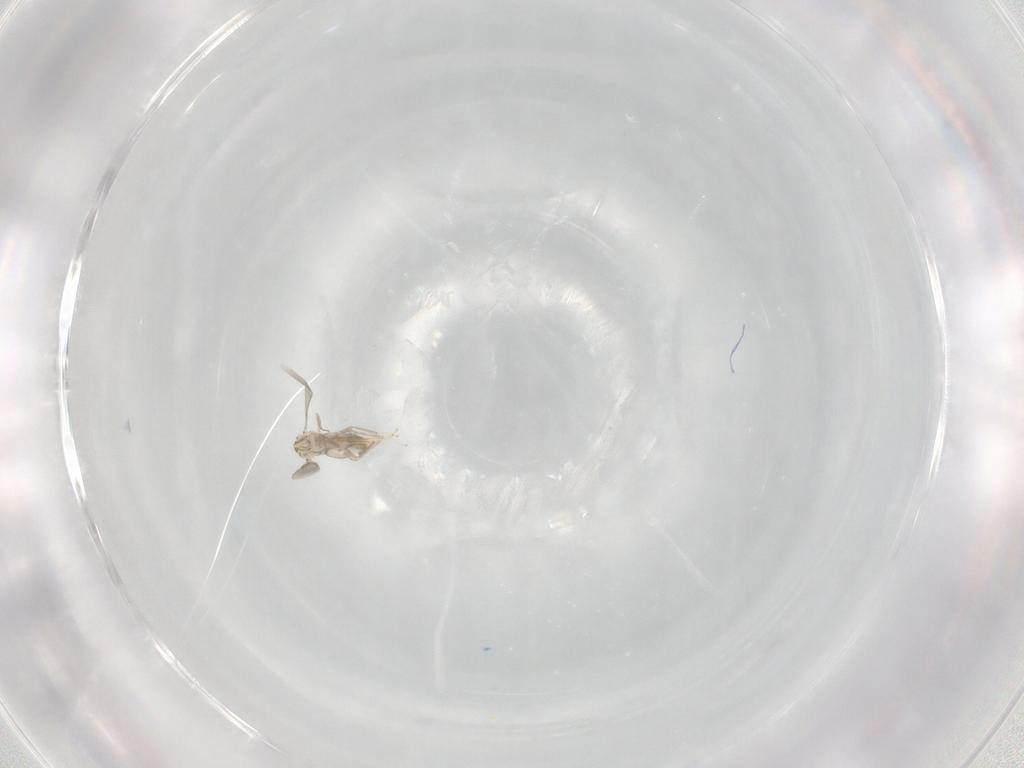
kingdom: Animalia
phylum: Arthropoda
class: Insecta
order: Hymenoptera
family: Aphelinidae
